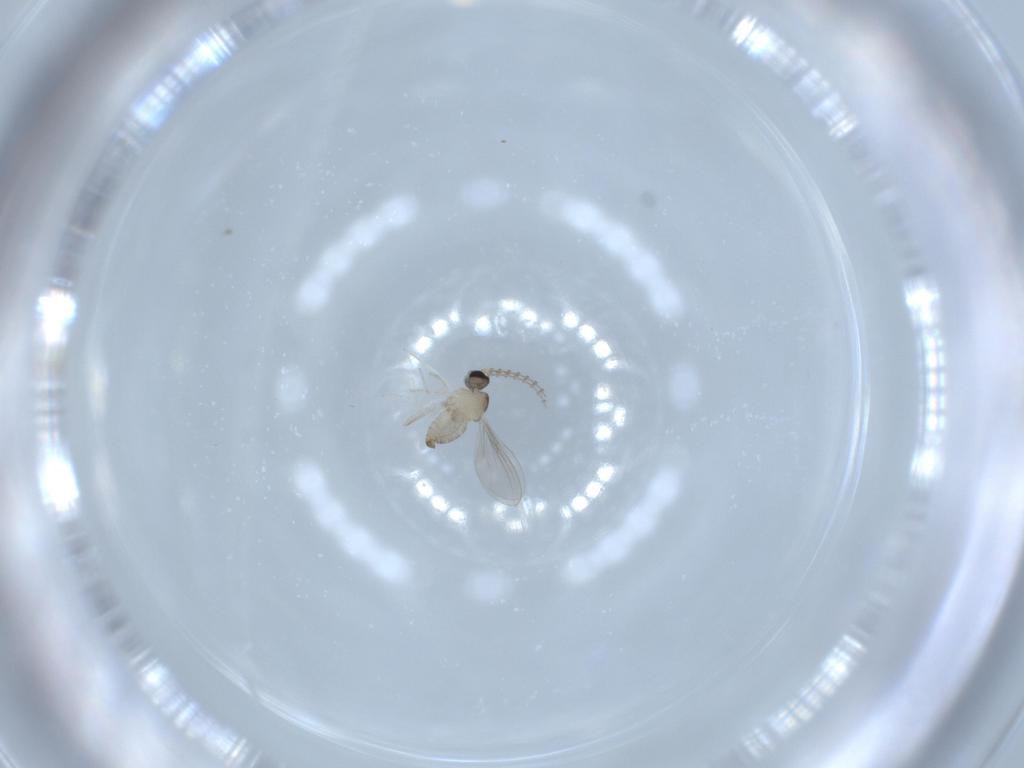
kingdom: Animalia
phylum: Arthropoda
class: Insecta
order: Diptera
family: Cecidomyiidae
